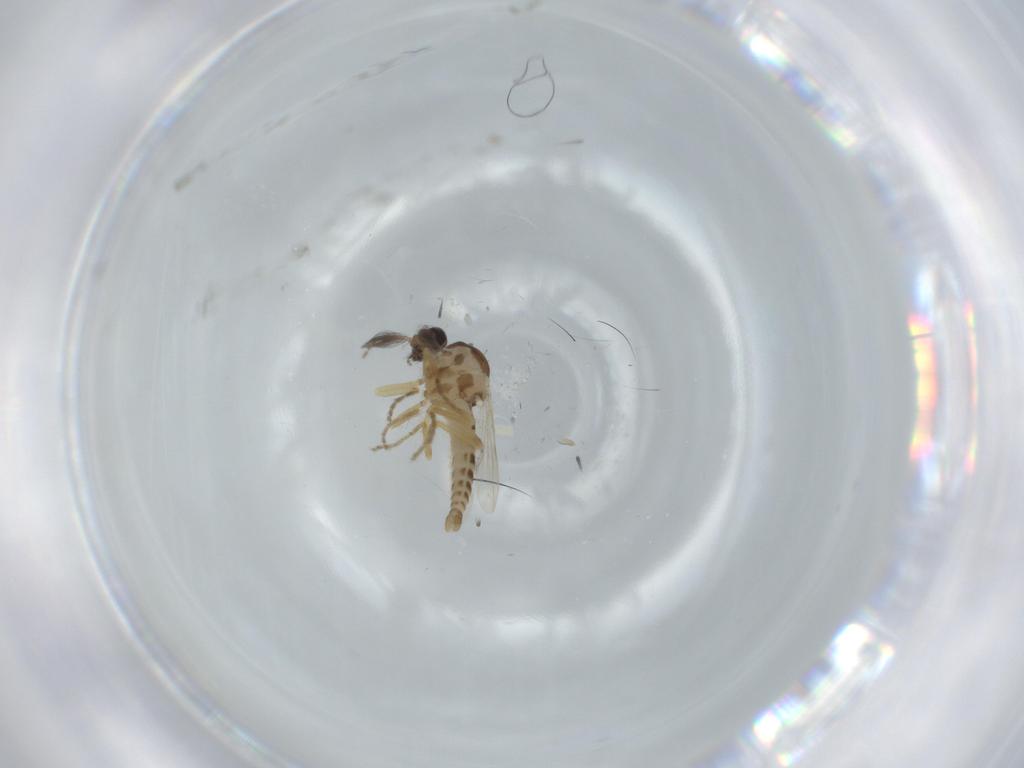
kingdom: Animalia
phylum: Arthropoda
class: Insecta
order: Diptera
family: Ceratopogonidae
